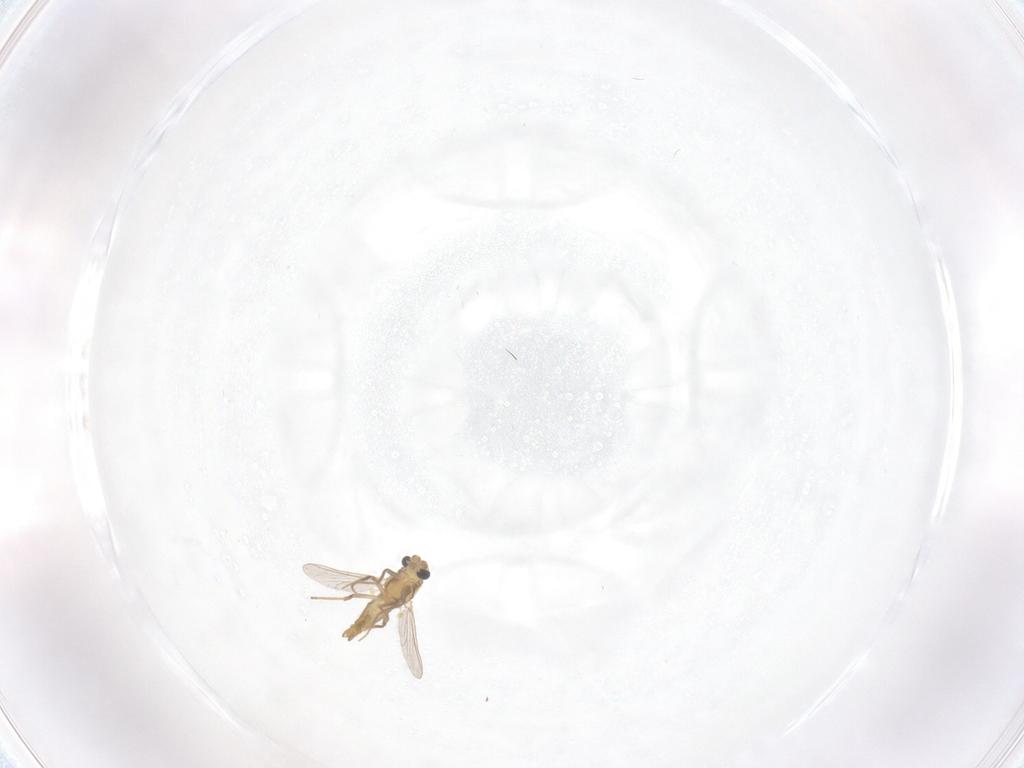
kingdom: Animalia
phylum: Arthropoda
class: Insecta
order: Diptera
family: Chironomidae
